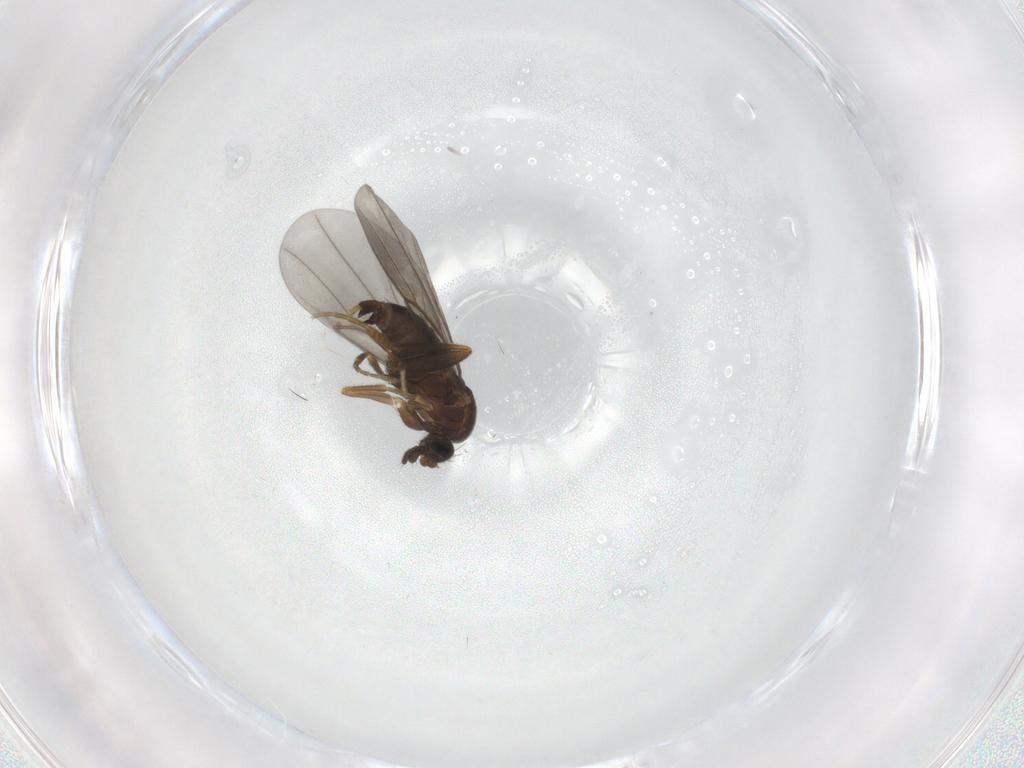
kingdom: Animalia
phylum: Arthropoda
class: Insecta
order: Diptera
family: Phoridae
